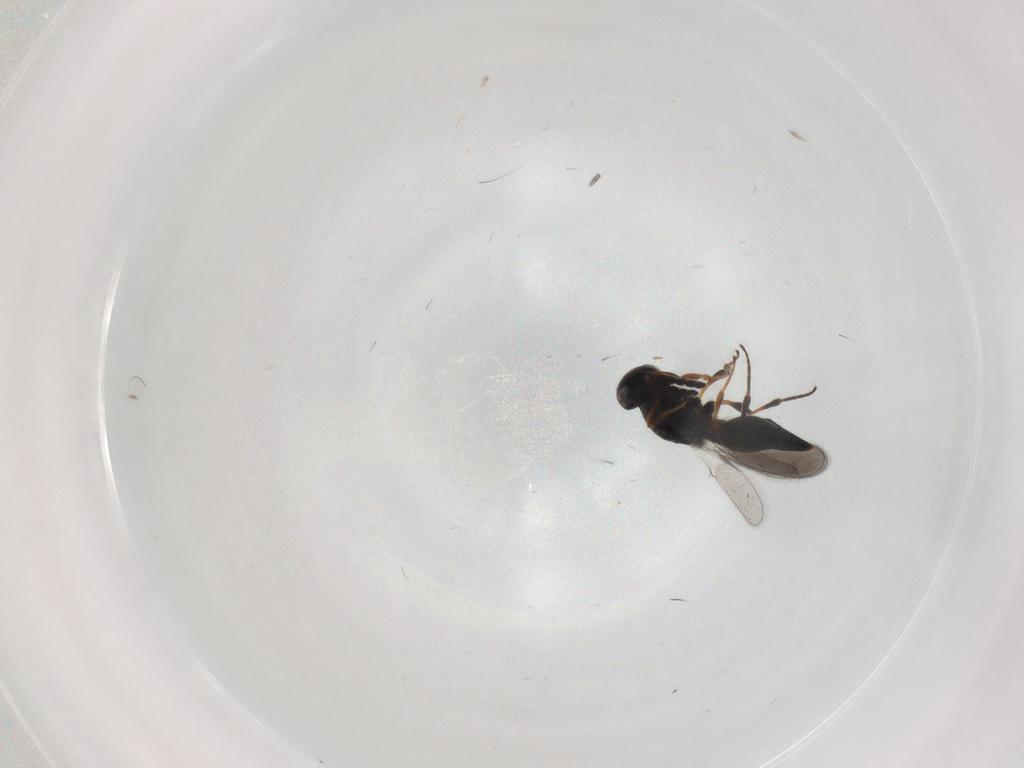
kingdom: Animalia
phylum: Arthropoda
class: Insecta
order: Hymenoptera
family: Platygastridae
